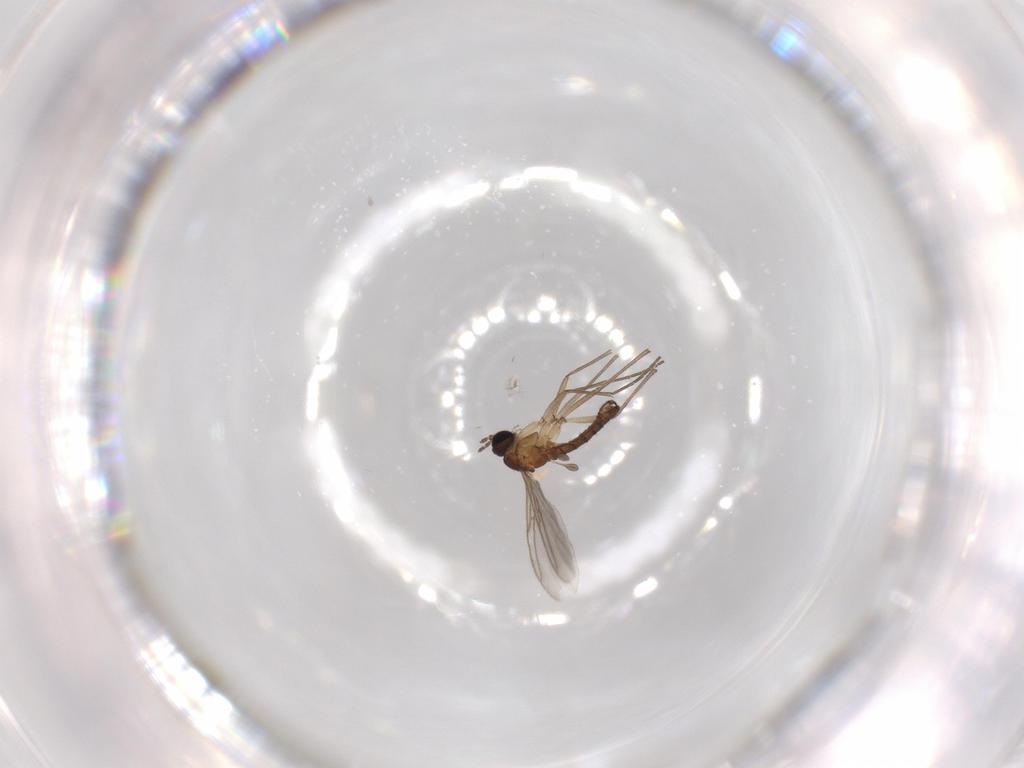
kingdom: Animalia
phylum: Arthropoda
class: Insecta
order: Diptera
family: Sciaridae
